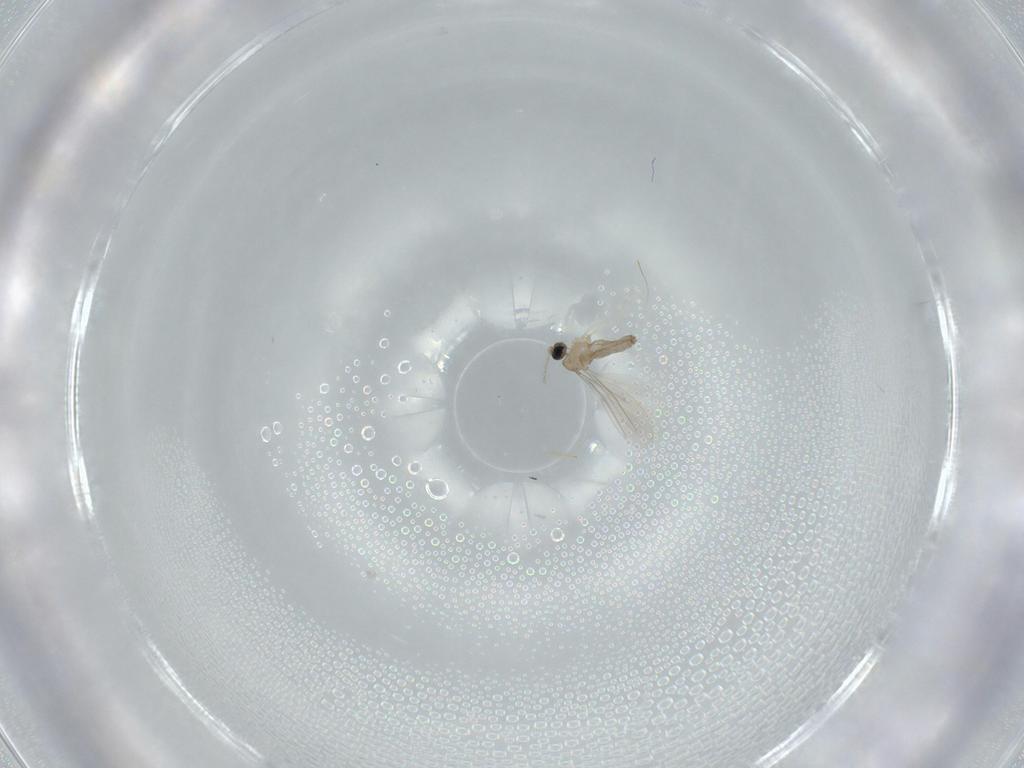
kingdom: Animalia
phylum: Arthropoda
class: Insecta
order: Diptera
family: Cecidomyiidae
